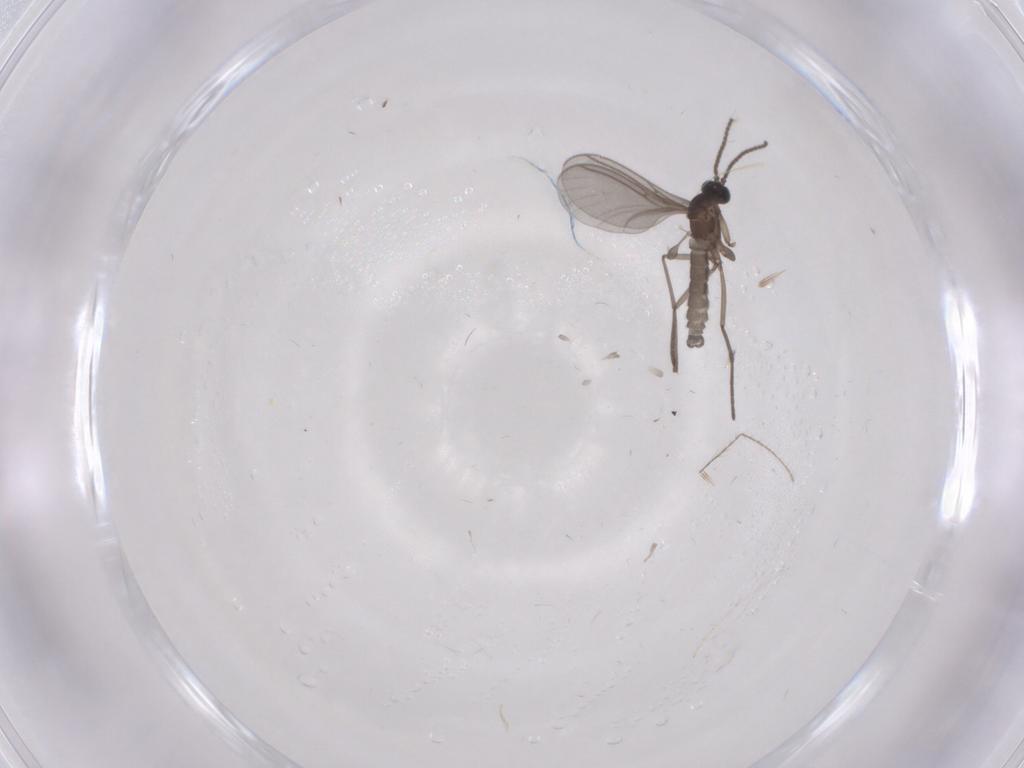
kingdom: Animalia
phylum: Arthropoda
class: Insecta
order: Diptera
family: Sciaridae
